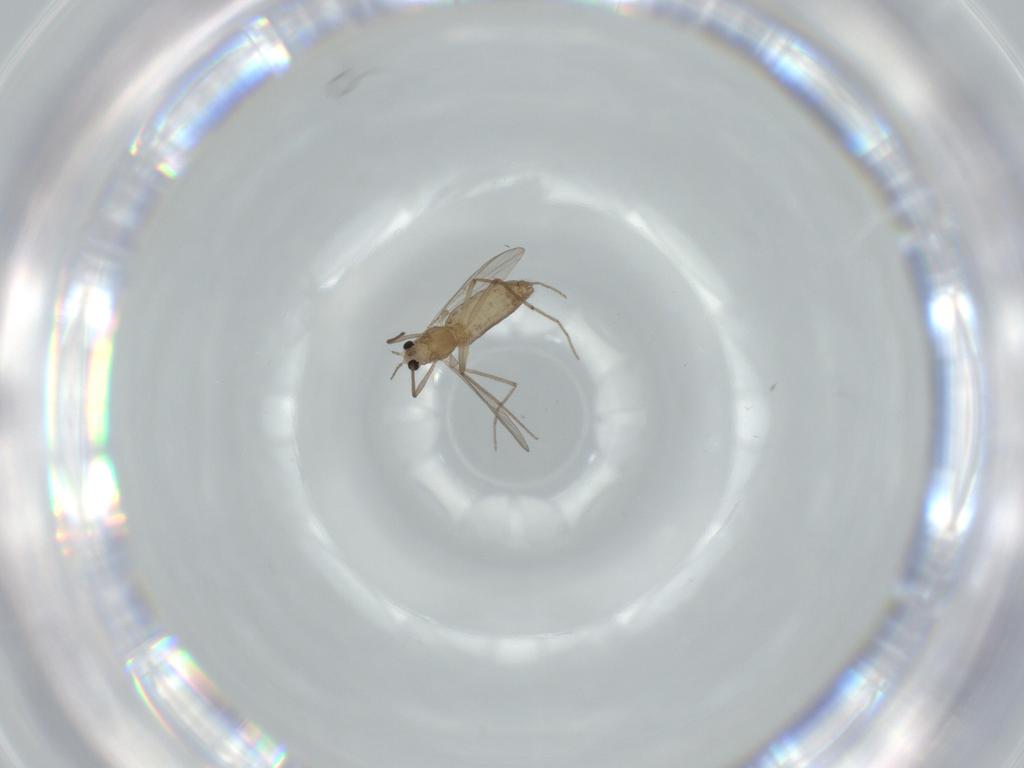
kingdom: Animalia
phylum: Arthropoda
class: Insecta
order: Diptera
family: Chironomidae
